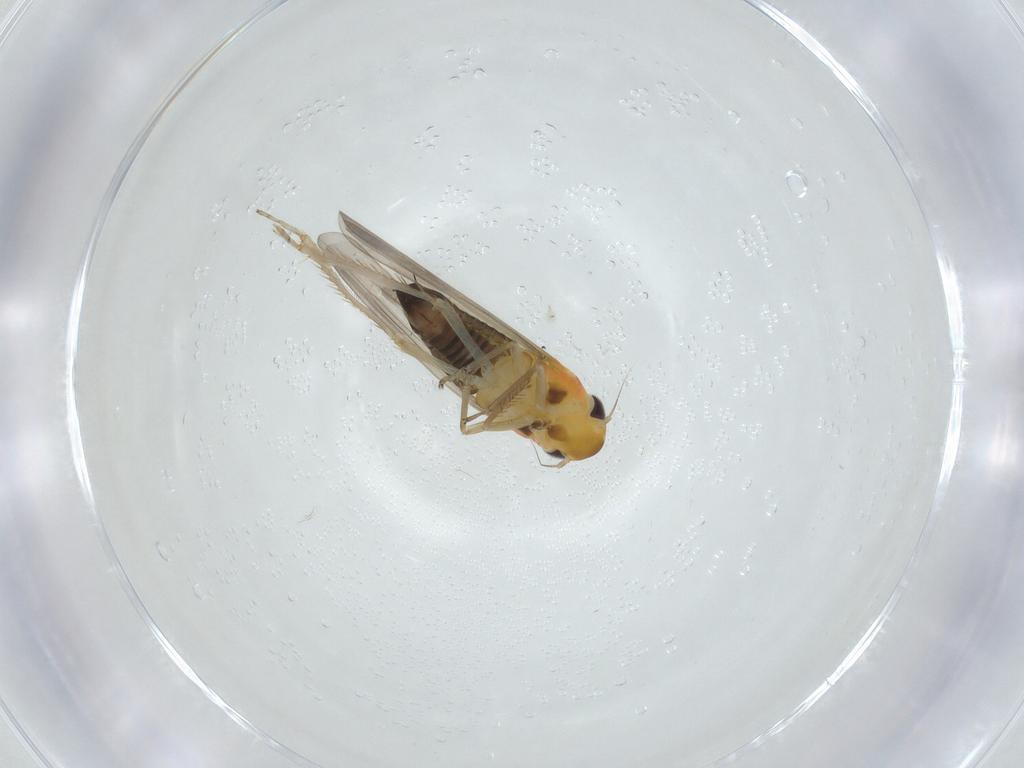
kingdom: Animalia
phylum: Arthropoda
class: Insecta
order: Hemiptera
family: Cicadellidae
